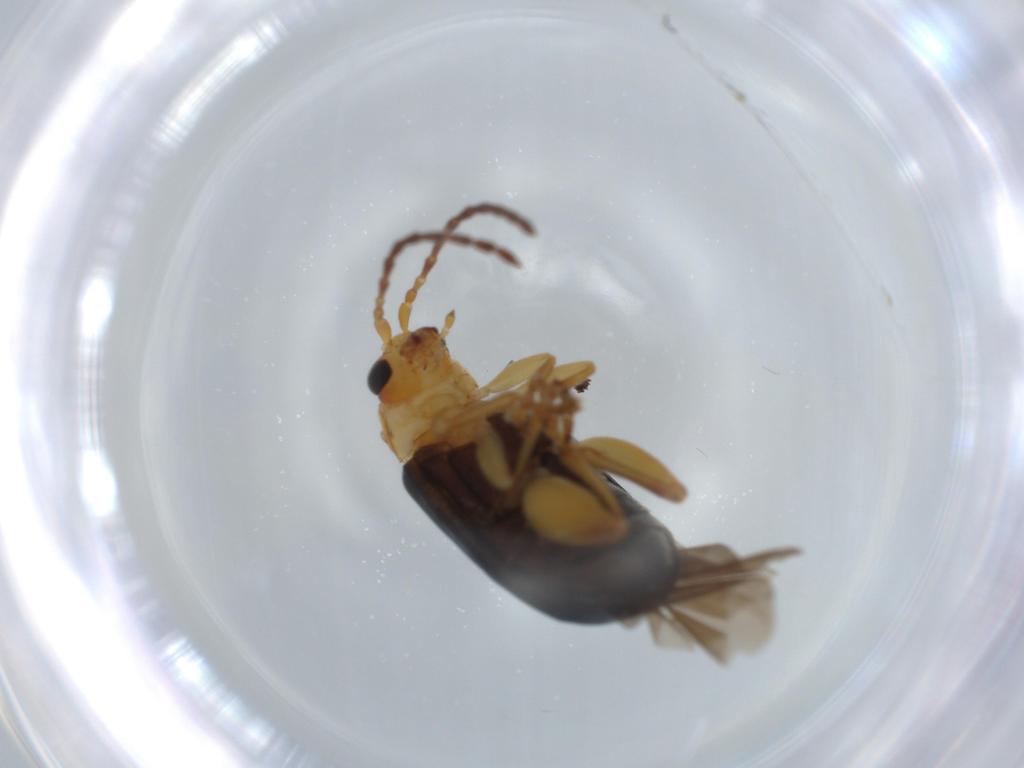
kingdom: Animalia
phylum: Arthropoda
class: Insecta
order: Coleoptera
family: Chrysomelidae
